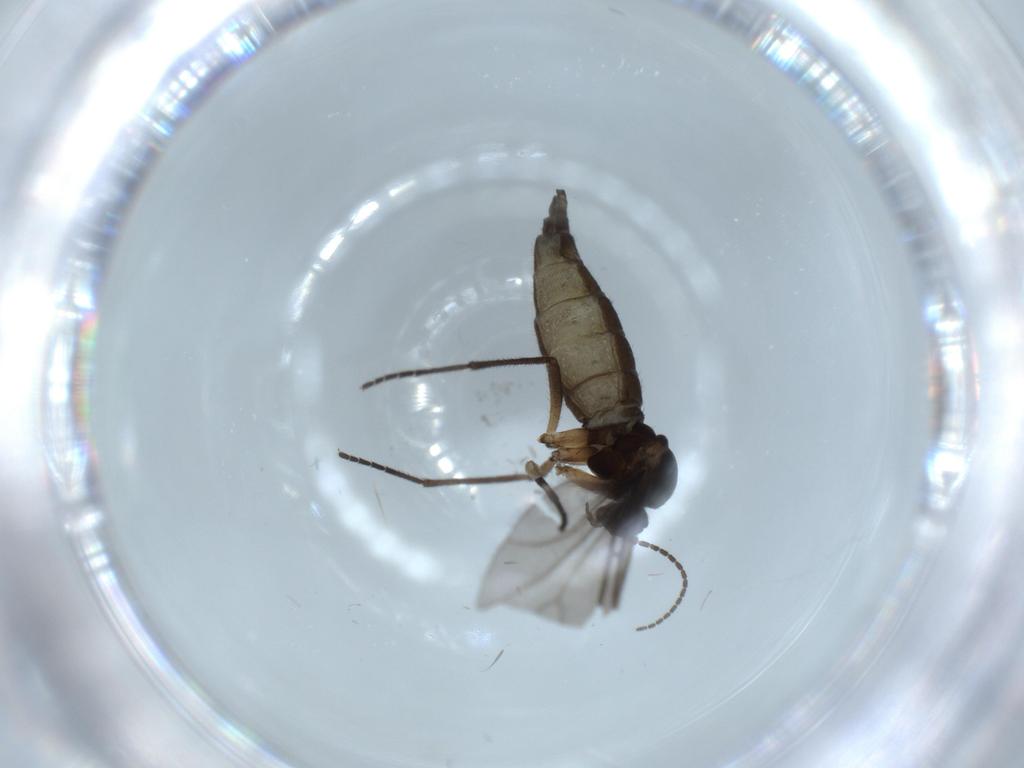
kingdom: Animalia
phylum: Arthropoda
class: Insecta
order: Diptera
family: Sciaridae
